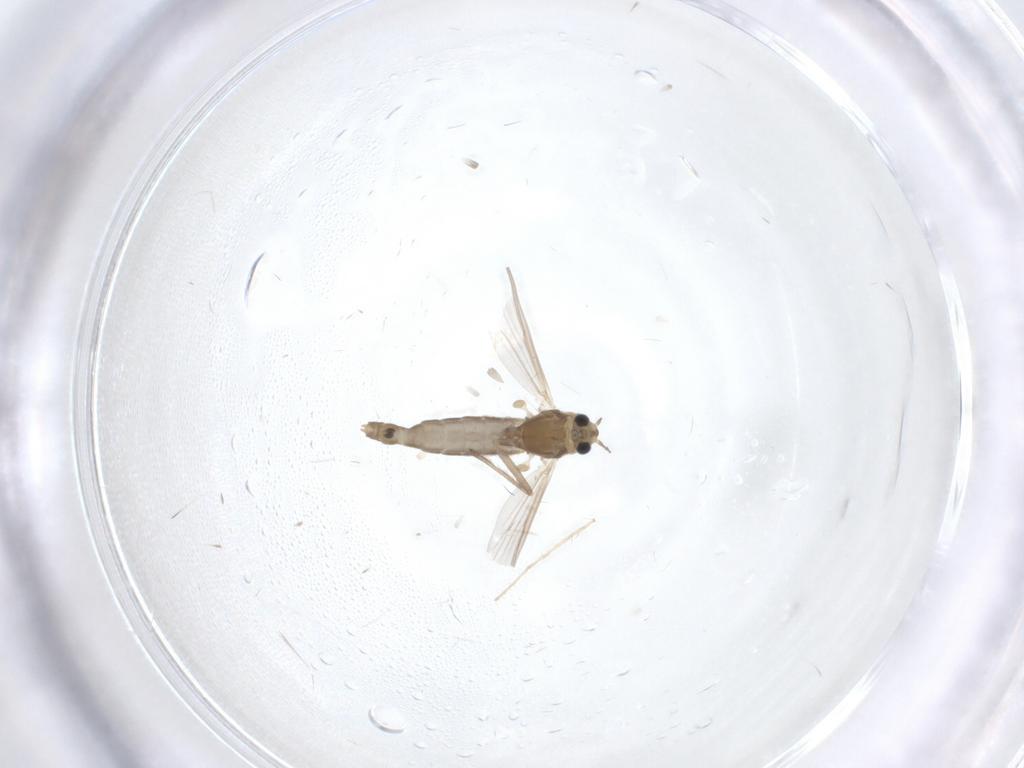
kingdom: Animalia
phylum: Arthropoda
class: Insecta
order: Diptera
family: Chironomidae
